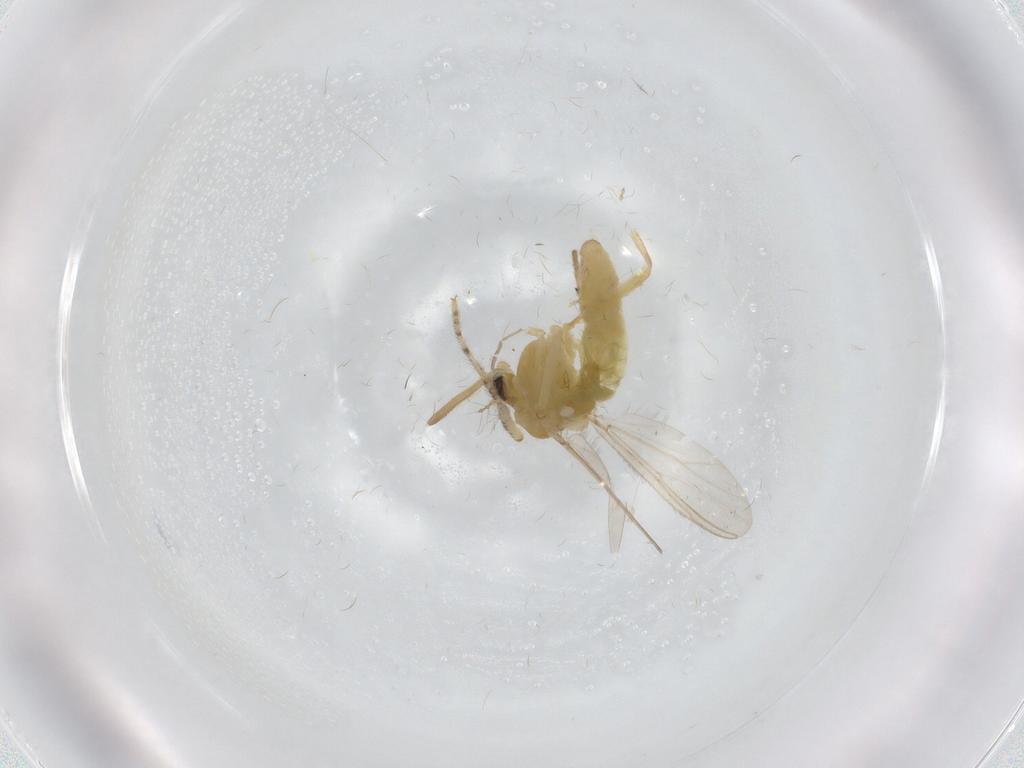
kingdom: Animalia
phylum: Arthropoda
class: Insecta
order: Diptera
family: Chironomidae
